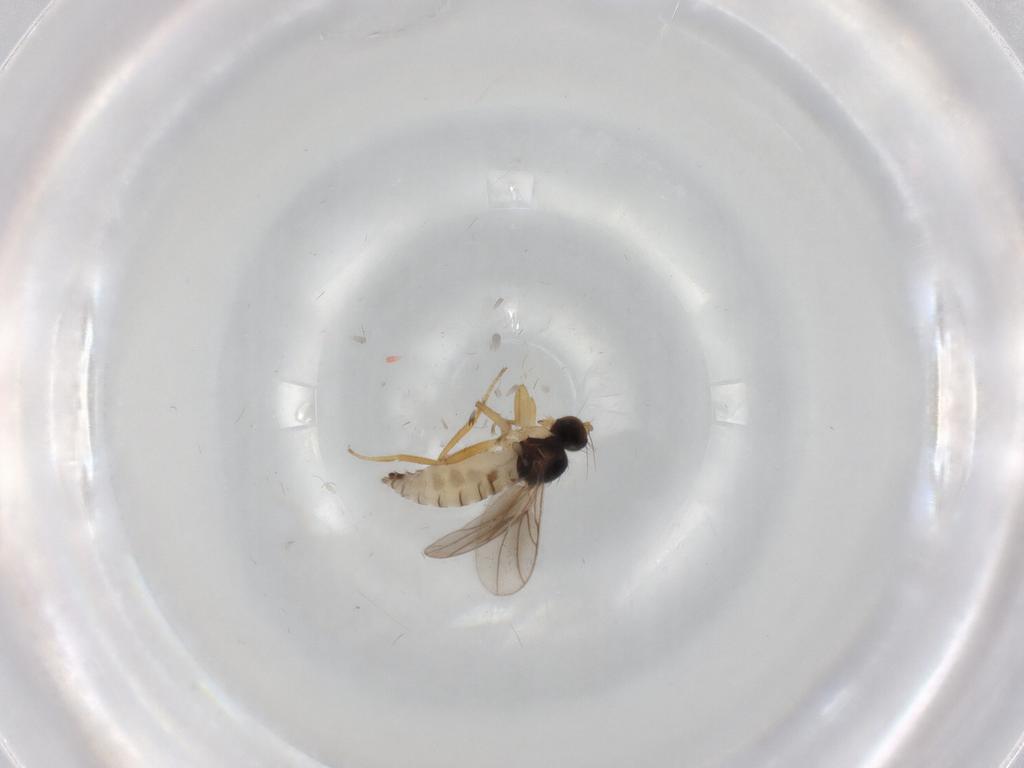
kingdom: Animalia
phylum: Arthropoda
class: Insecta
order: Diptera
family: Hybotidae
